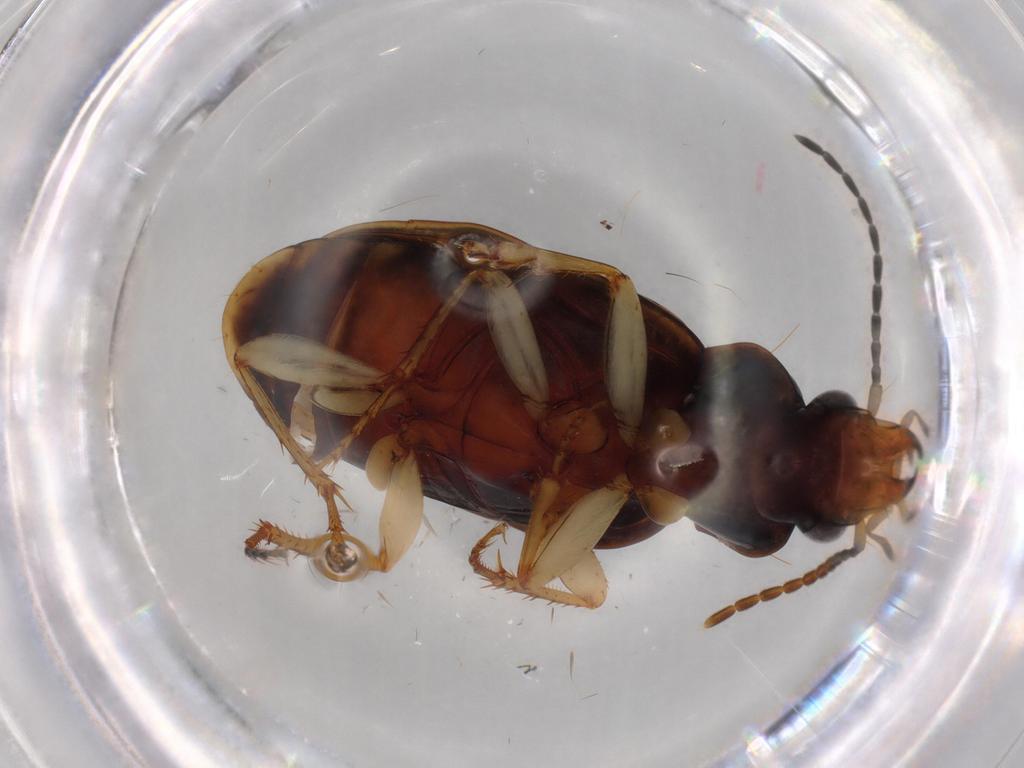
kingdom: Animalia
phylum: Arthropoda
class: Insecta
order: Coleoptera
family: Carabidae
